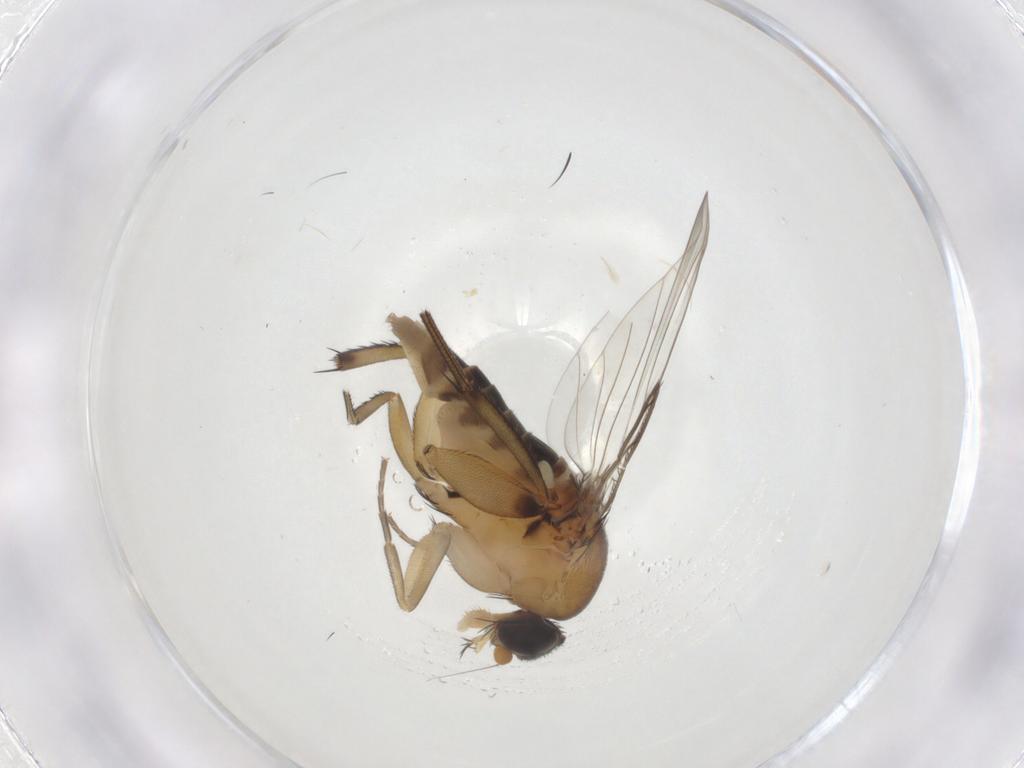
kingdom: Animalia
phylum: Arthropoda
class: Insecta
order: Diptera
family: Phoridae
